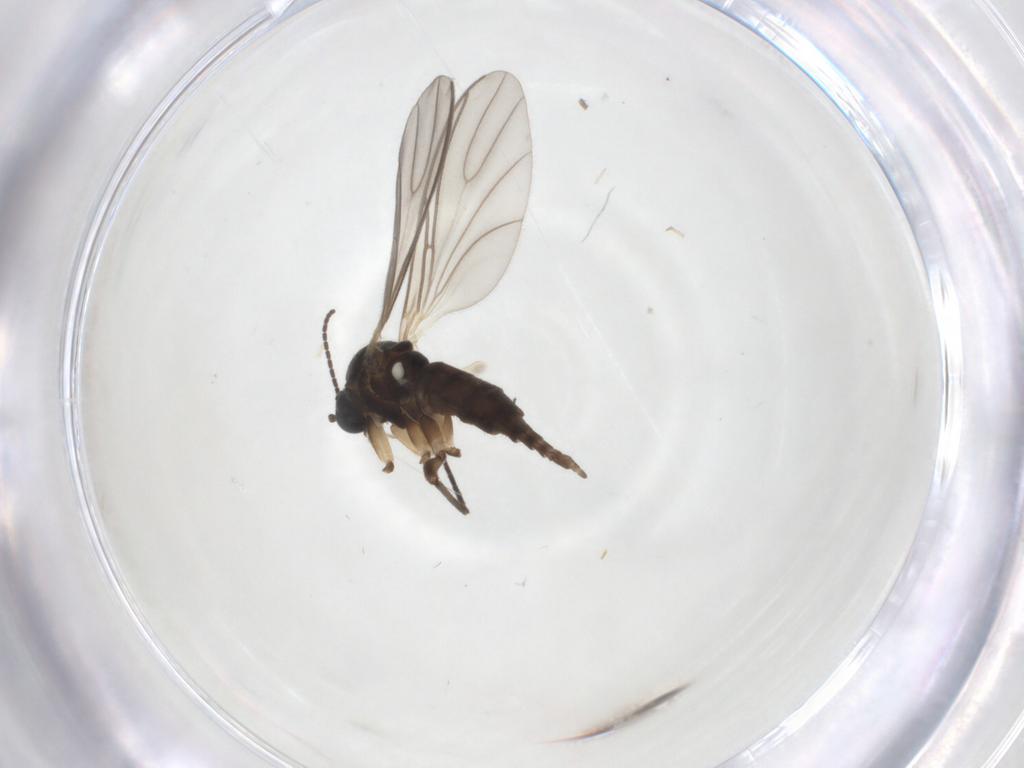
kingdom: Animalia
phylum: Arthropoda
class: Insecta
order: Diptera
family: Sciaridae
